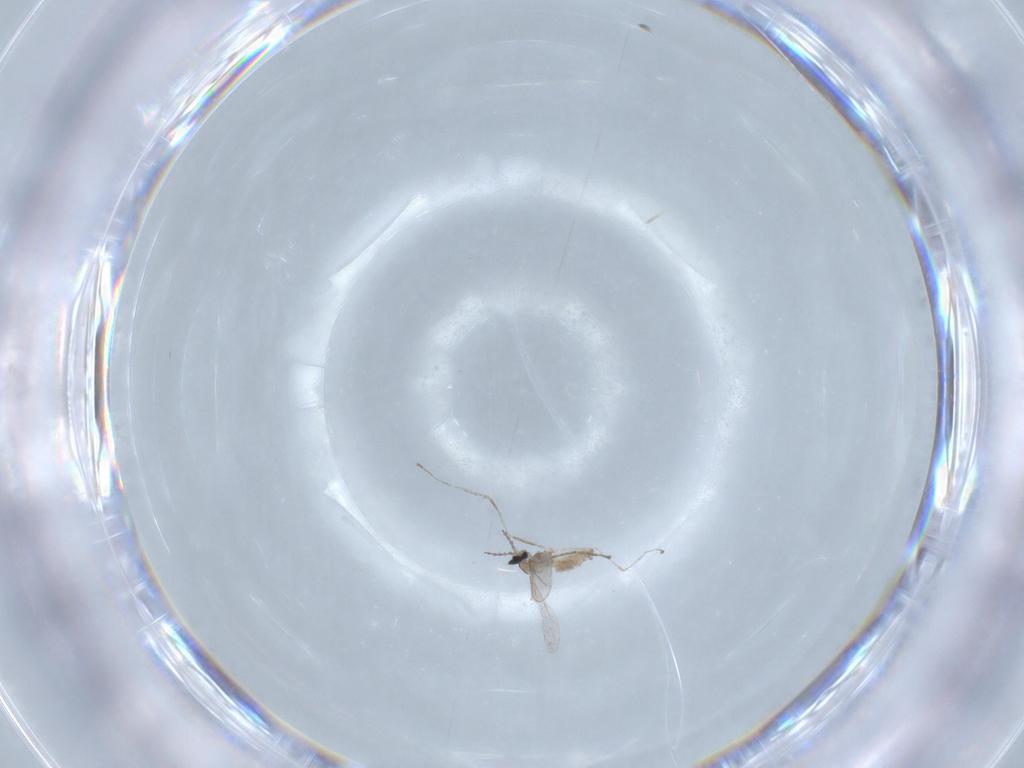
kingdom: Animalia
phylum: Arthropoda
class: Insecta
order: Diptera
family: Cecidomyiidae
